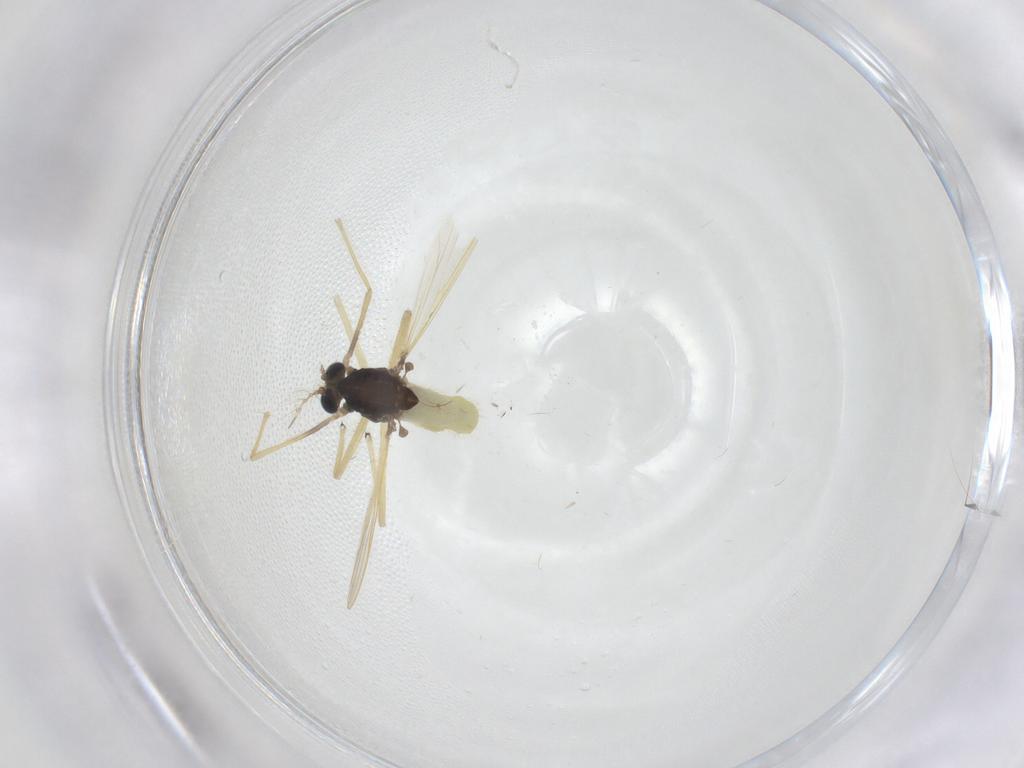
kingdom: Animalia
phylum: Arthropoda
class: Insecta
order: Diptera
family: Chironomidae
